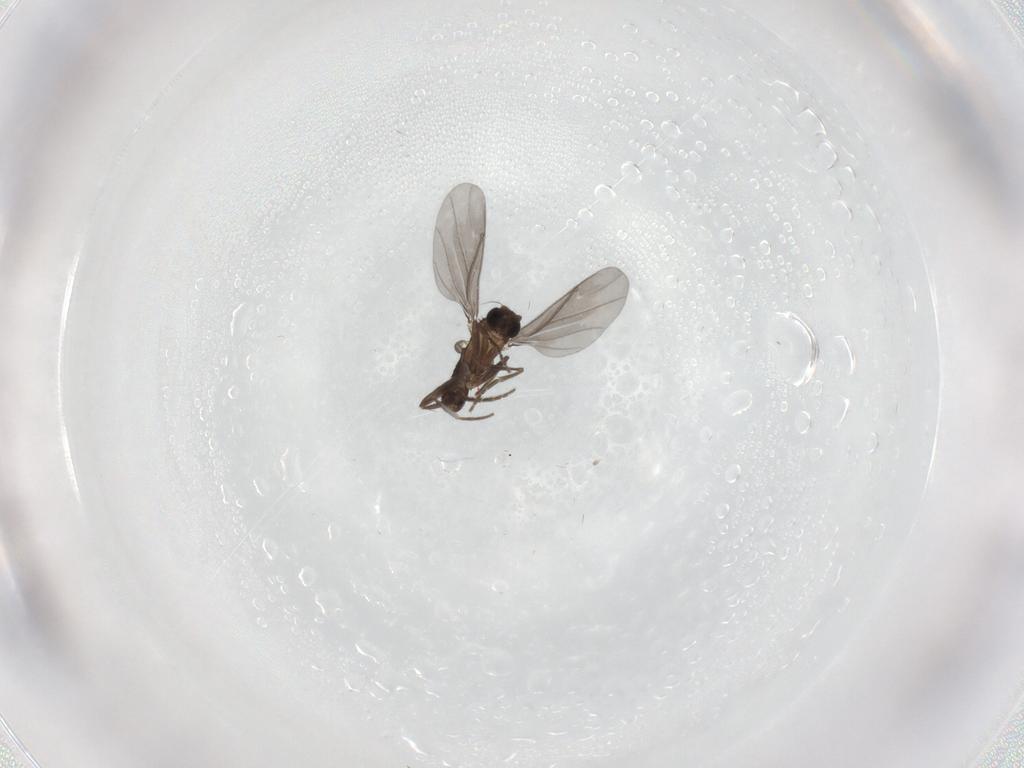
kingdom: Animalia
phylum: Arthropoda
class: Insecta
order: Diptera
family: Phoridae
